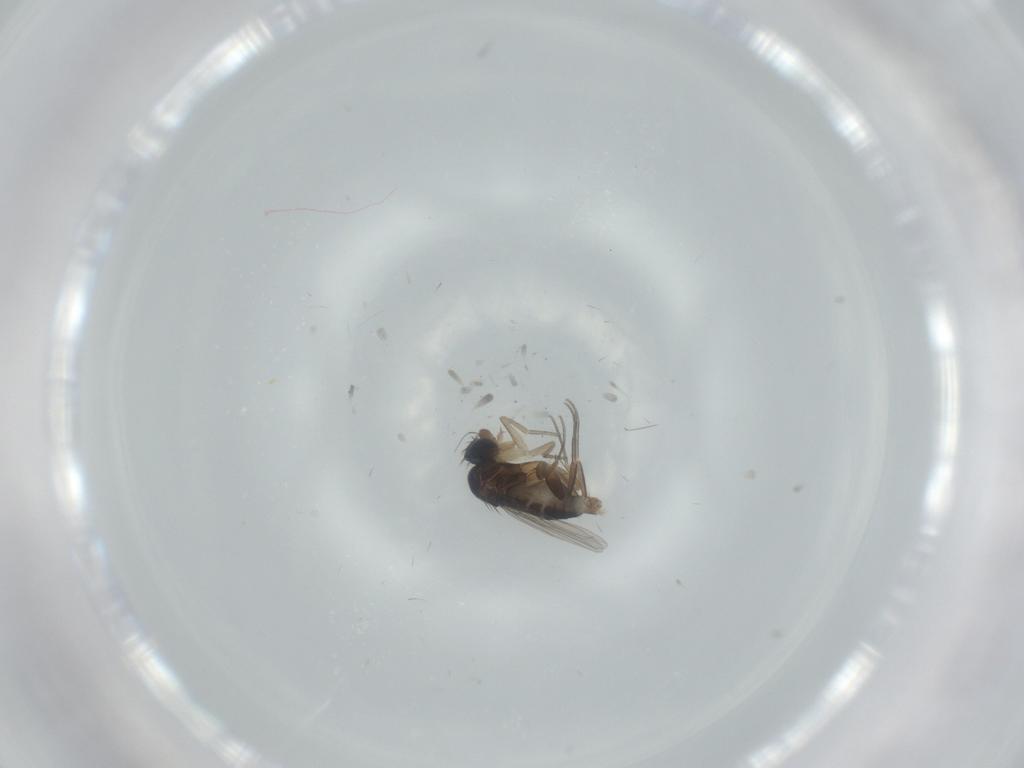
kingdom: Animalia
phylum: Arthropoda
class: Insecta
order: Diptera
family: Phoridae
